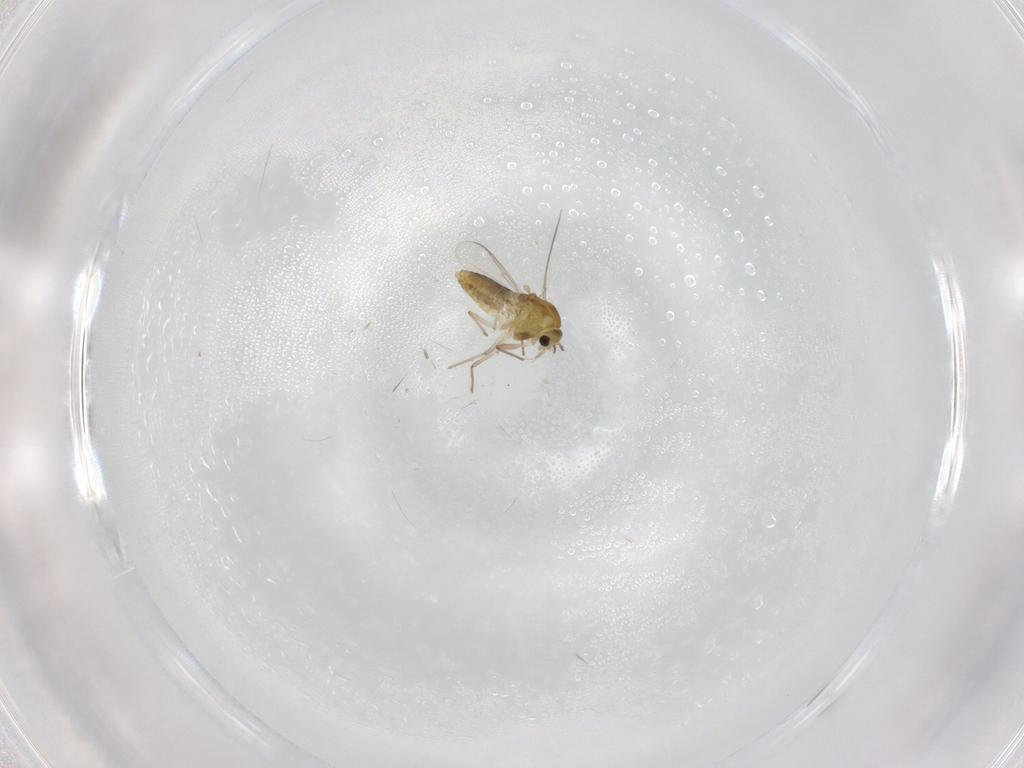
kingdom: Animalia
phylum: Arthropoda
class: Insecta
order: Diptera
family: Chironomidae
